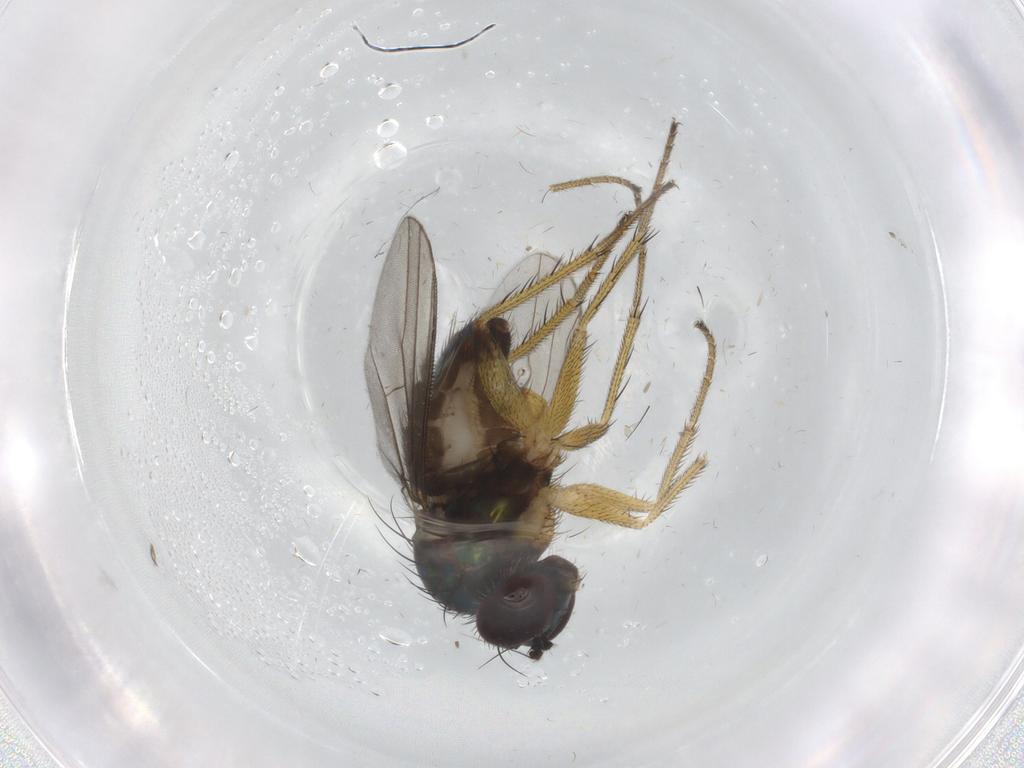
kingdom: Animalia
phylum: Arthropoda
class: Insecta
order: Diptera
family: Dolichopodidae
